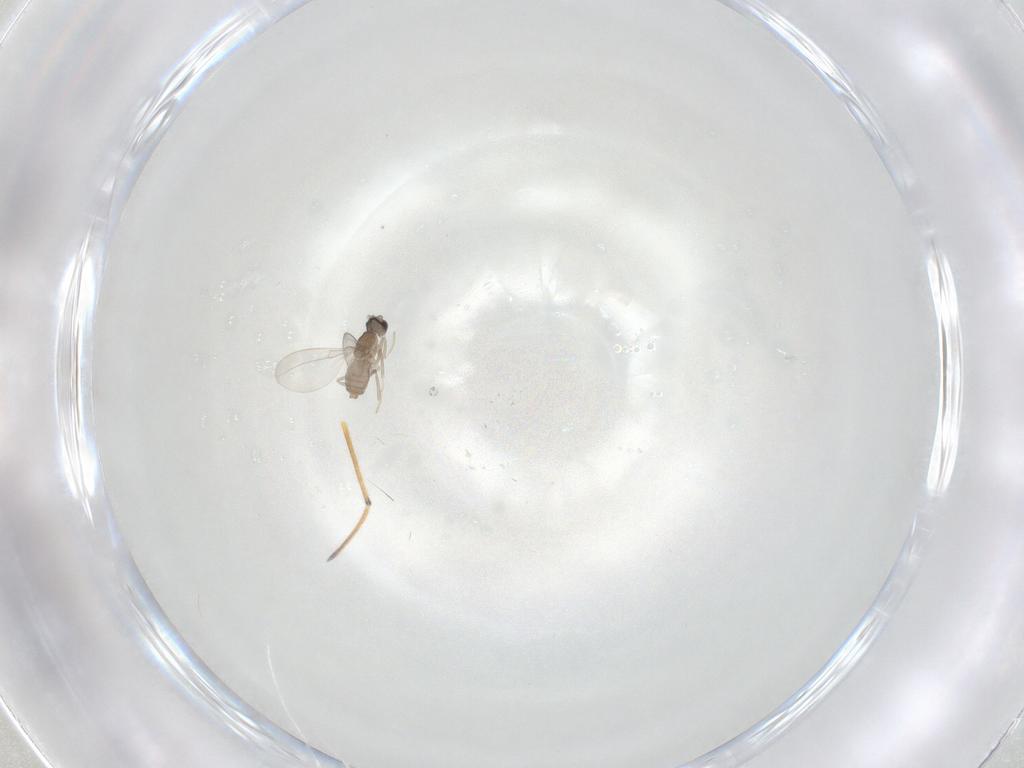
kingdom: Animalia
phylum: Arthropoda
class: Insecta
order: Diptera
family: Cecidomyiidae
